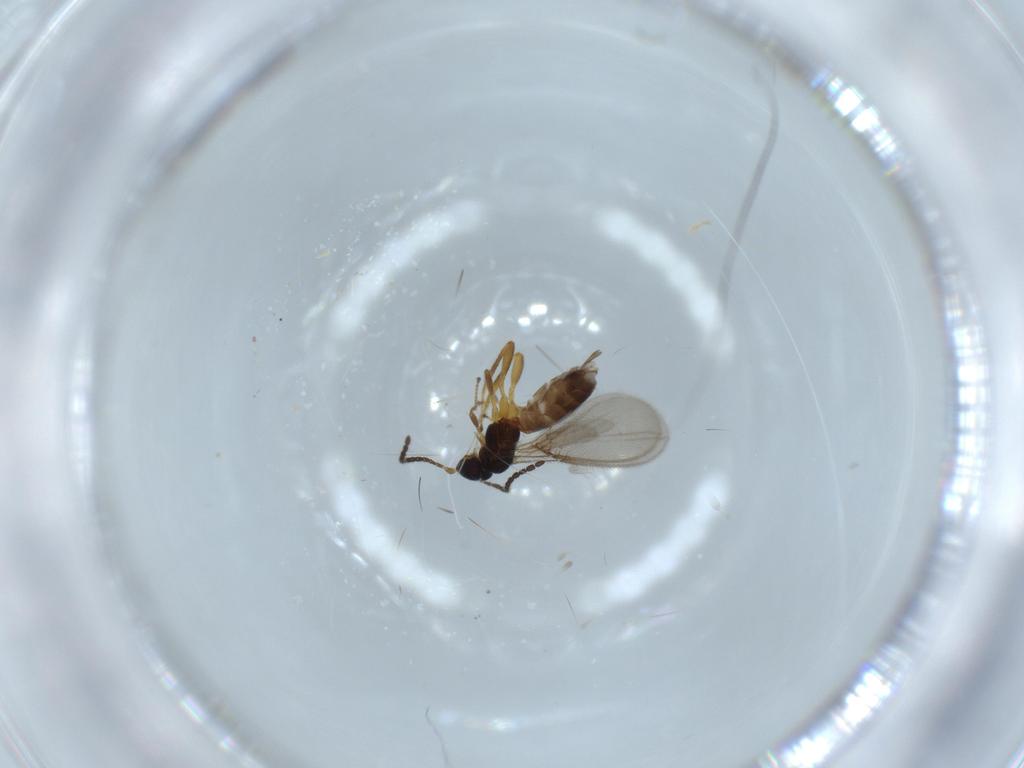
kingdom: Animalia
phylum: Arthropoda
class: Insecta
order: Hymenoptera
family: Braconidae
